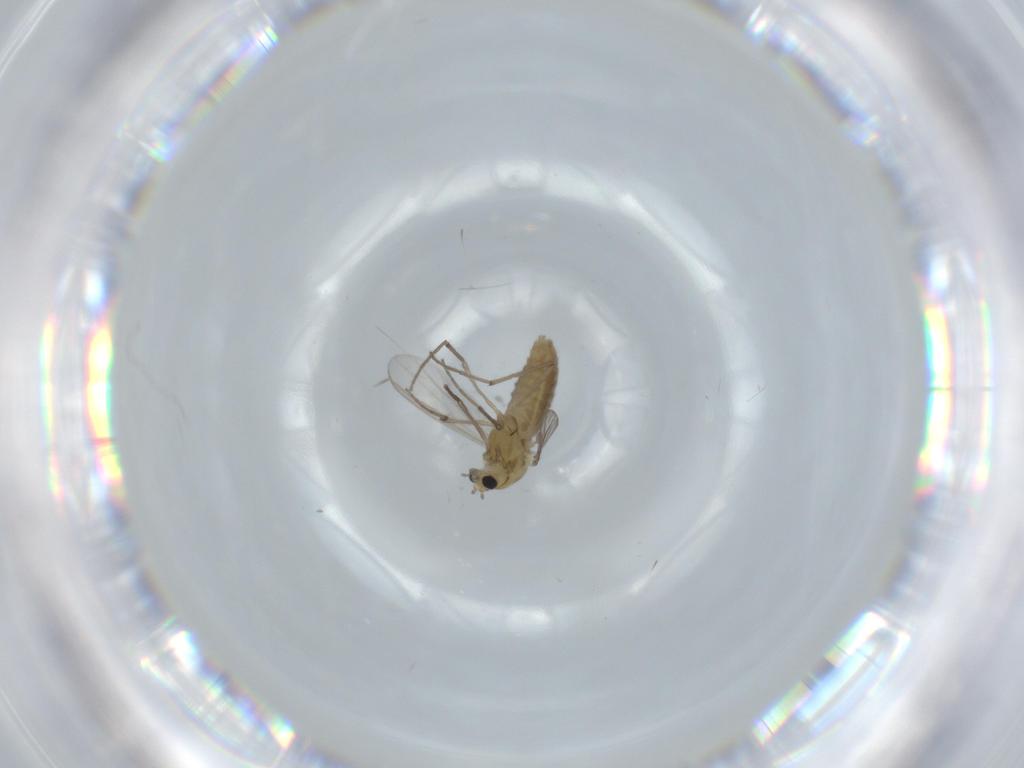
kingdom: Animalia
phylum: Arthropoda
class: Insecta
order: Diptera
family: Chironomidae
